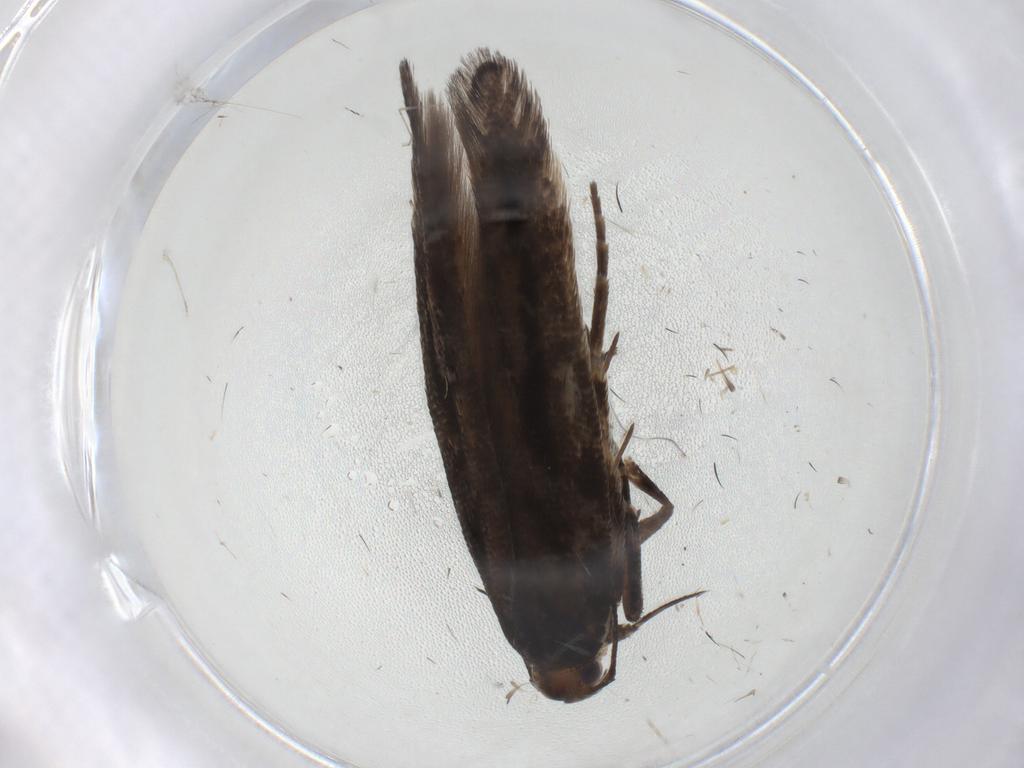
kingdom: Animalia
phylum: Arthropoda
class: Insecta
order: Lepidoptera
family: Gelechiidae
